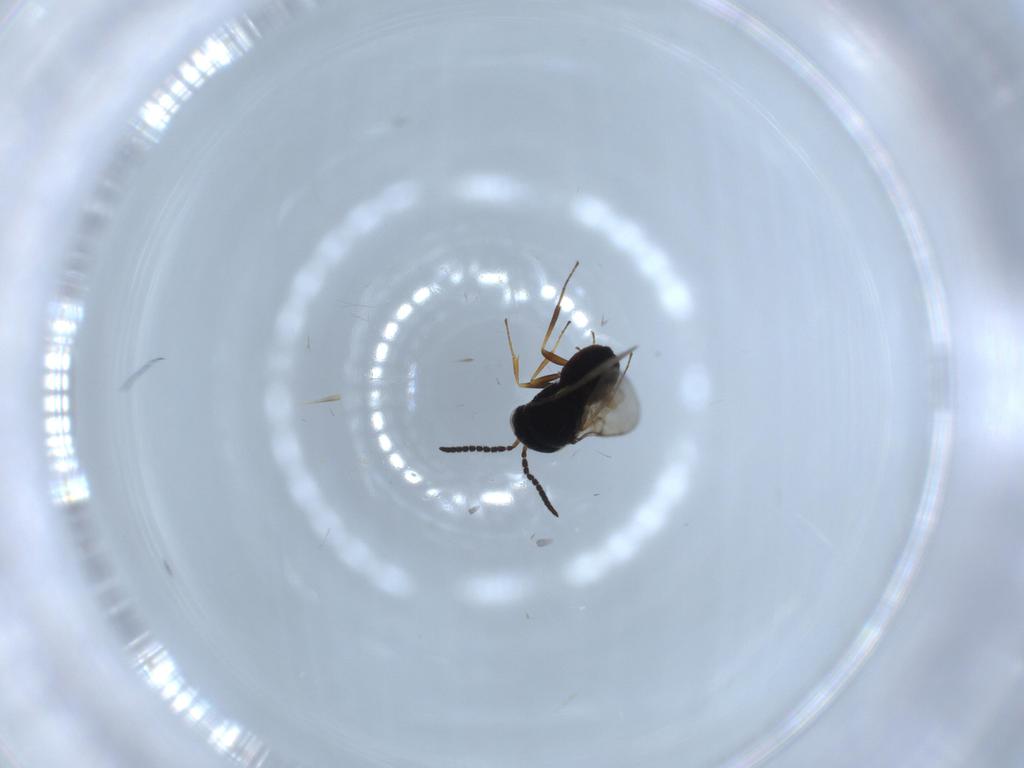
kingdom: Animalia
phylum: Arthropoda
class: Insecta
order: Hymenoptera
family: Scelionidae
